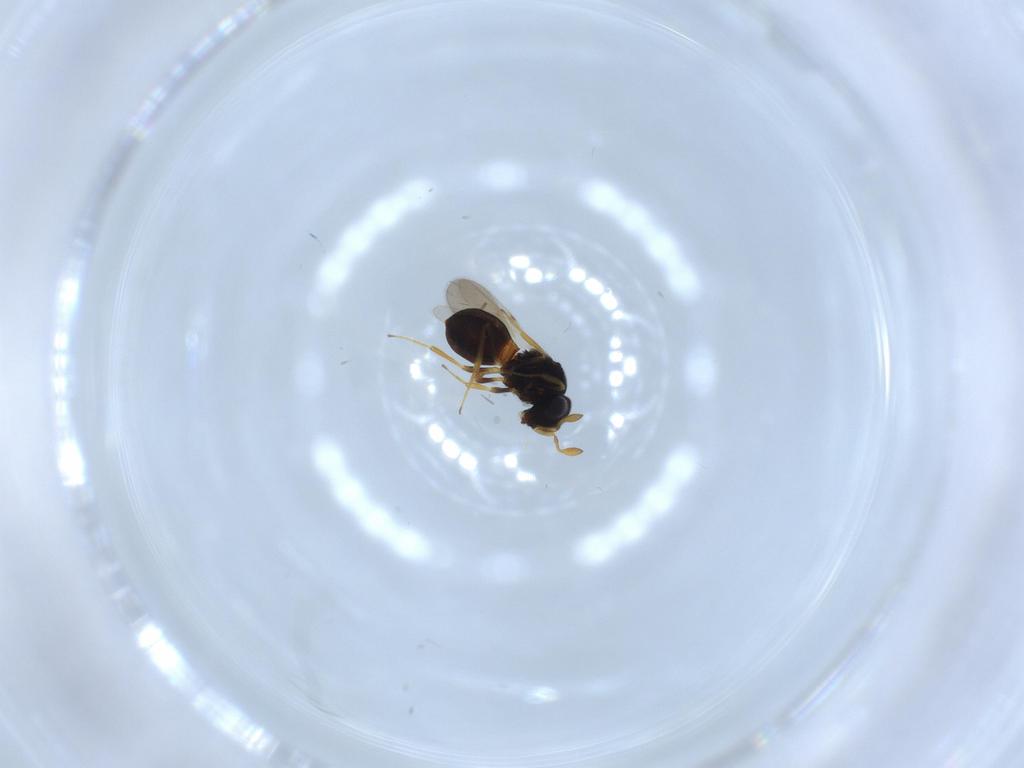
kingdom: Animalia
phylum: Arthropoda
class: Insecta
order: Hymenoptera
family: Scelionidae
